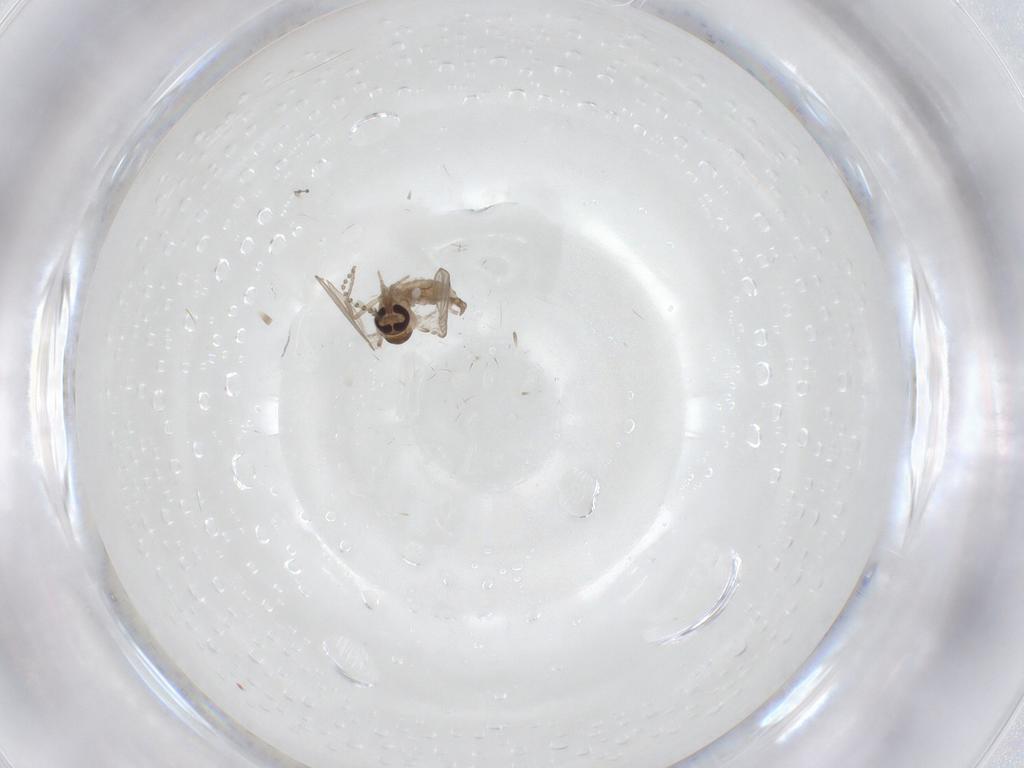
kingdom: Animalia
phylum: Arthropoda
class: Insecta
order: Diptera
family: Psychodidae
